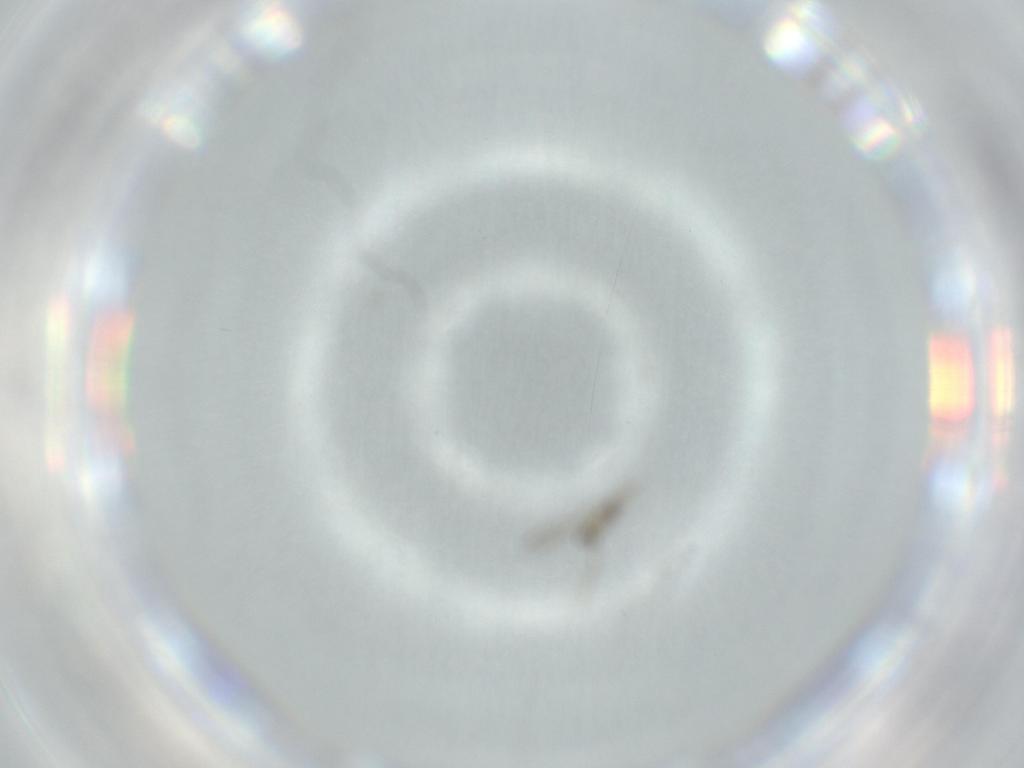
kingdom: Animalia
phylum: Arthropoda
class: Insecta
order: Diptera
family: Cecidomyiidae
